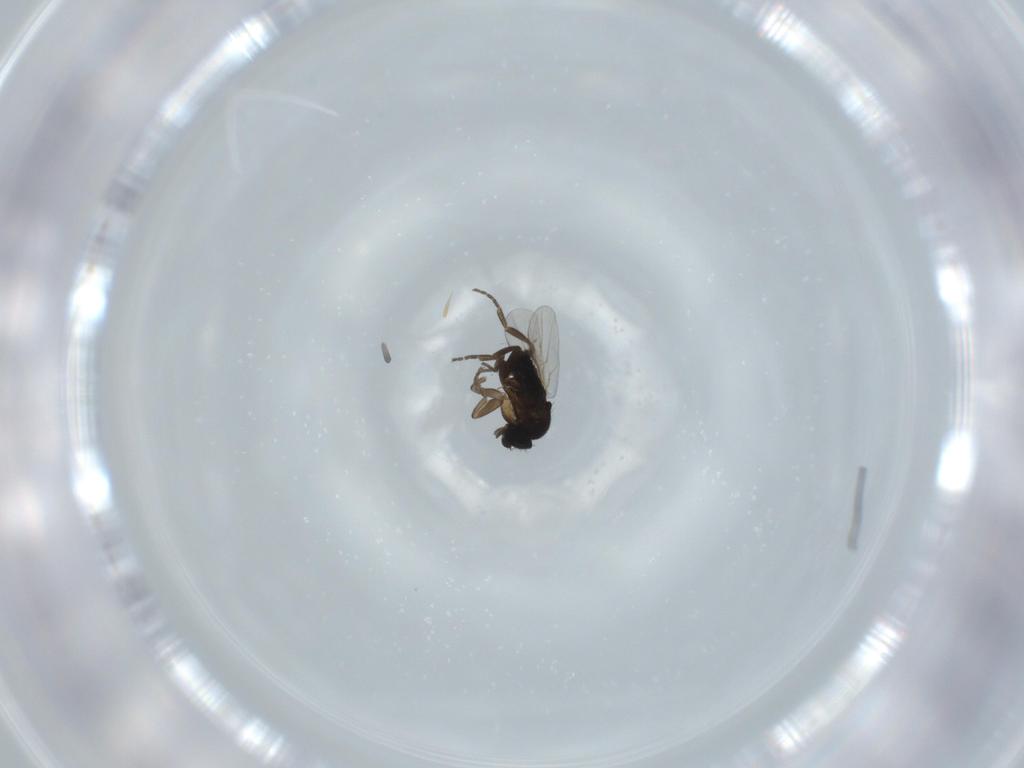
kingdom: Animalia
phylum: Arthropoda
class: Insecta
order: Diptera
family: Phoridae
